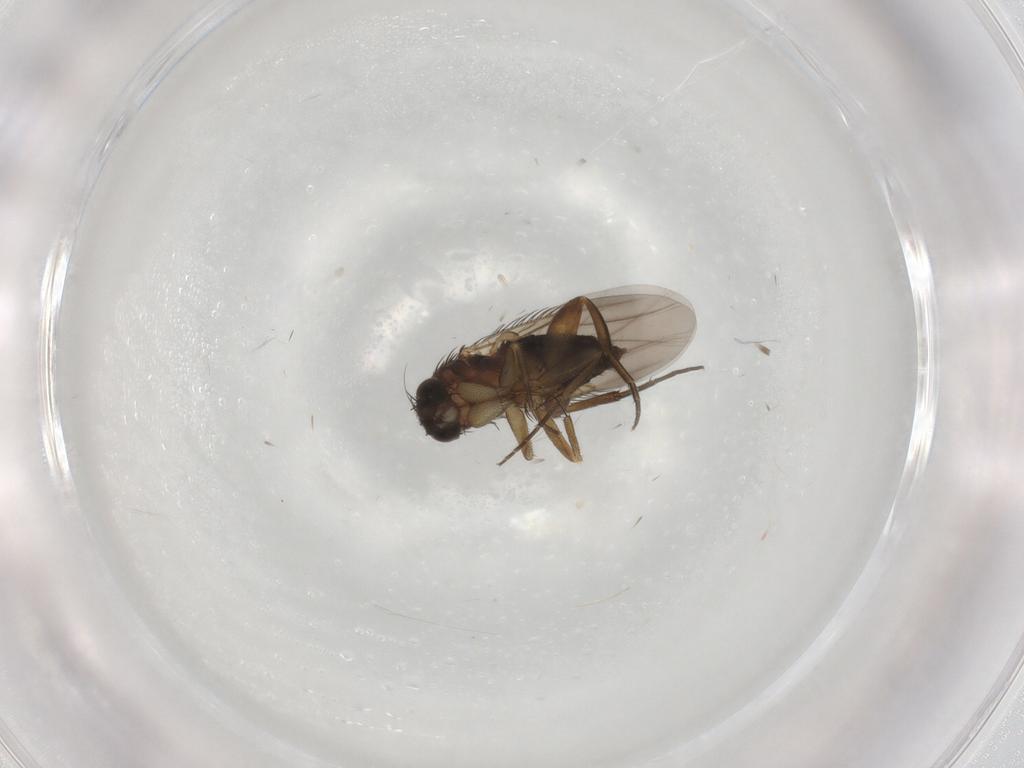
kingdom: Animalia
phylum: Arthropoda
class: Insecta
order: Diptera
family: Phoridae
